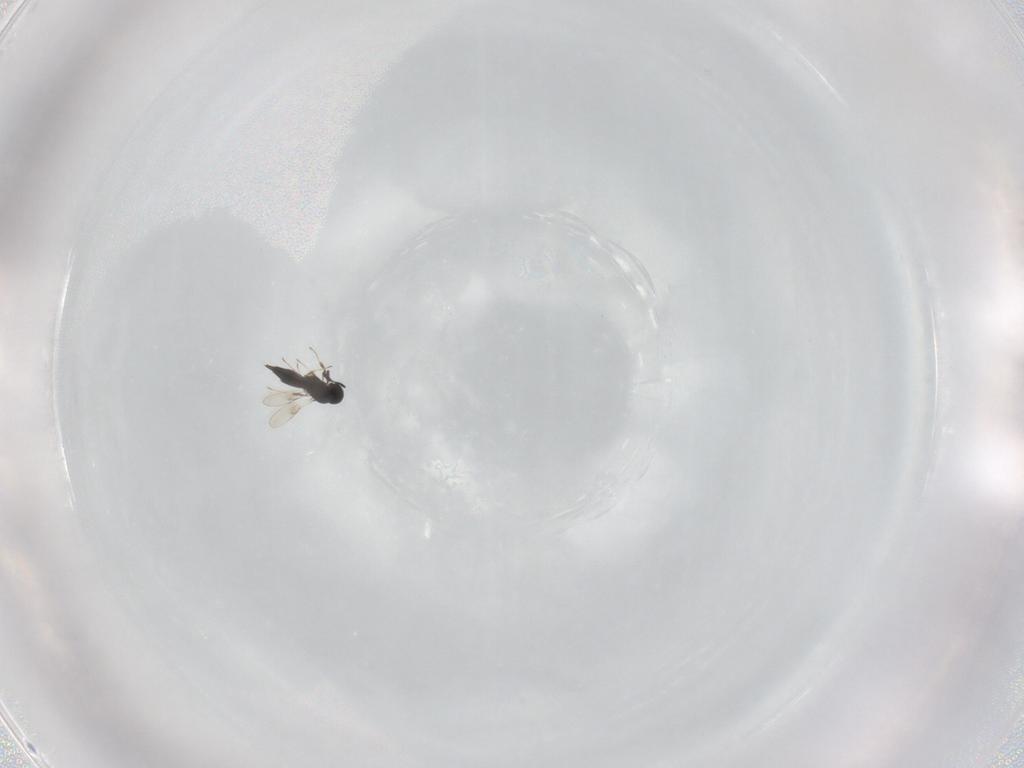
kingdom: Animalia
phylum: Arthropoda
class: Insecta
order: Hymenoptera
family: Scelionidae
